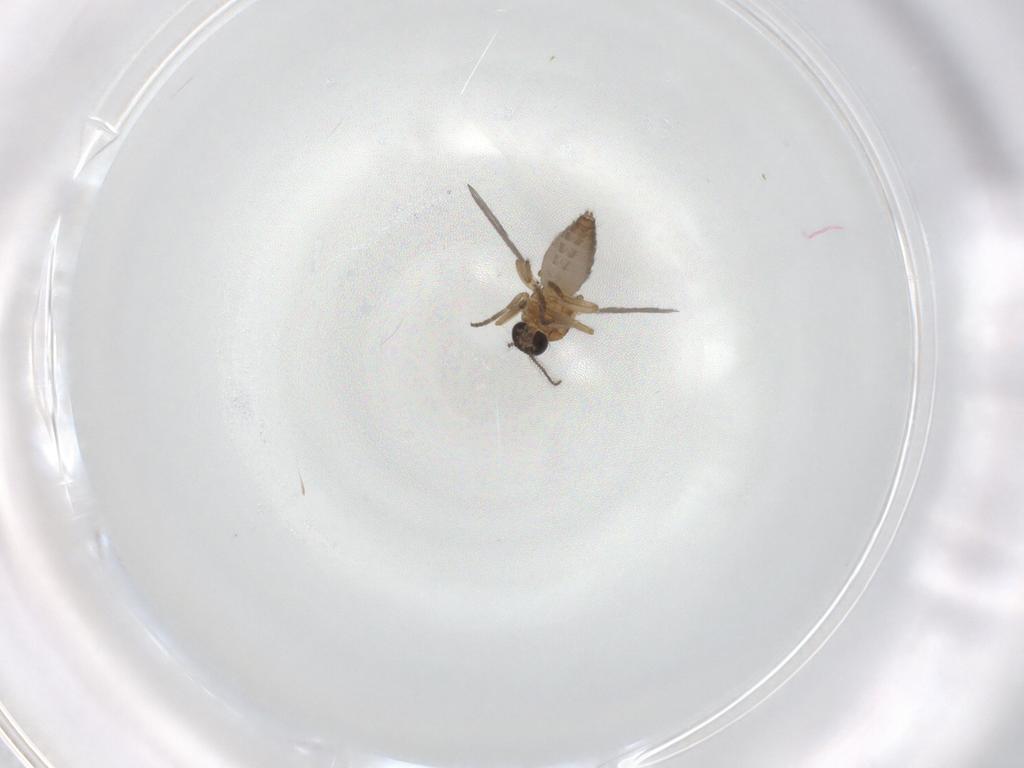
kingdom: Animalia
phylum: Arthropoda
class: Insecta
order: Diptera
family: Ceratopogonidae
